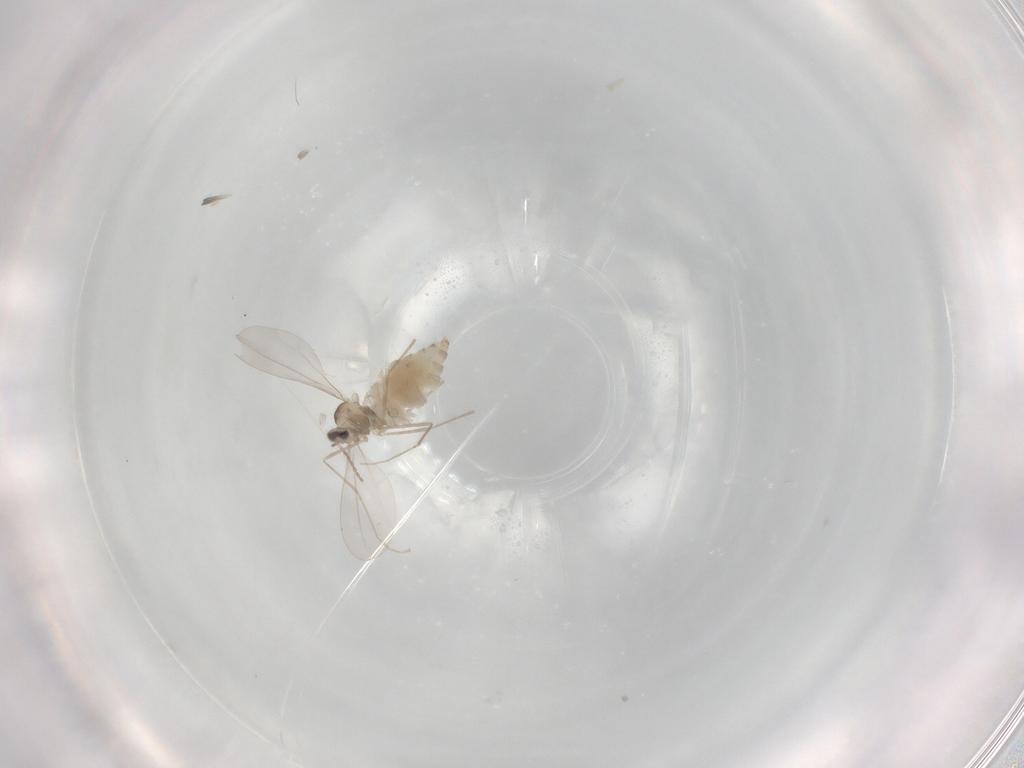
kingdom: Animalia
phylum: Arthropoda
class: Insecta
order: Diptera
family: Cecidomyiidae
